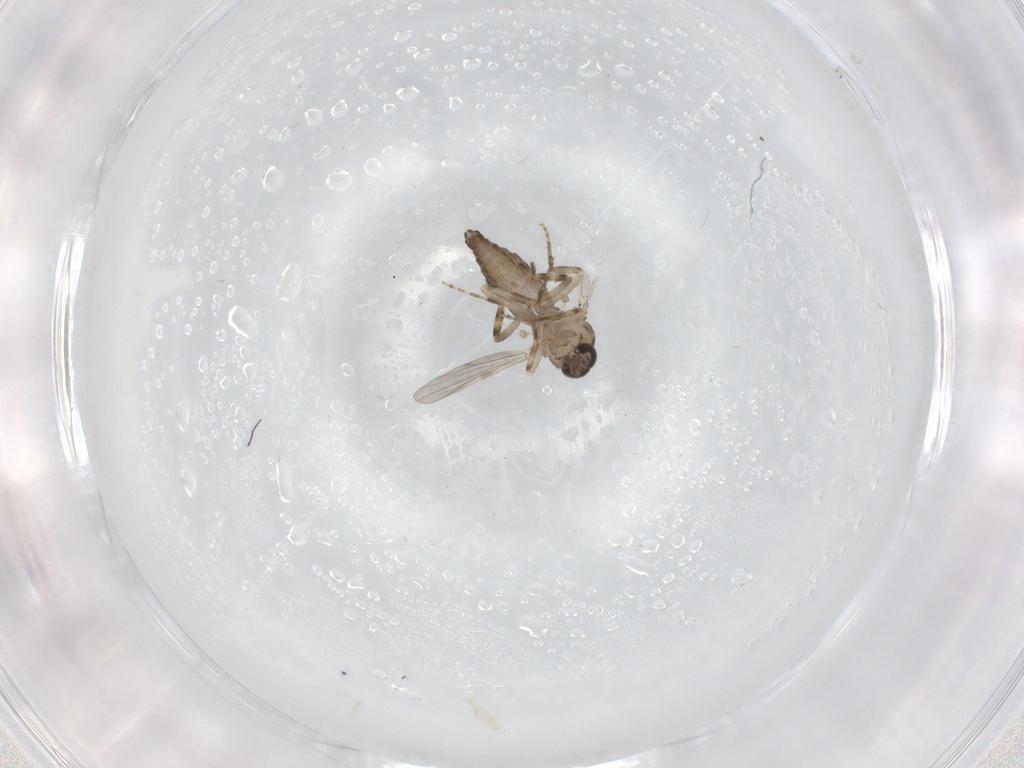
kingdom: Animalia
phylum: Arthropoda
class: Insecta
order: Diptera
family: Ceratopogonidae
